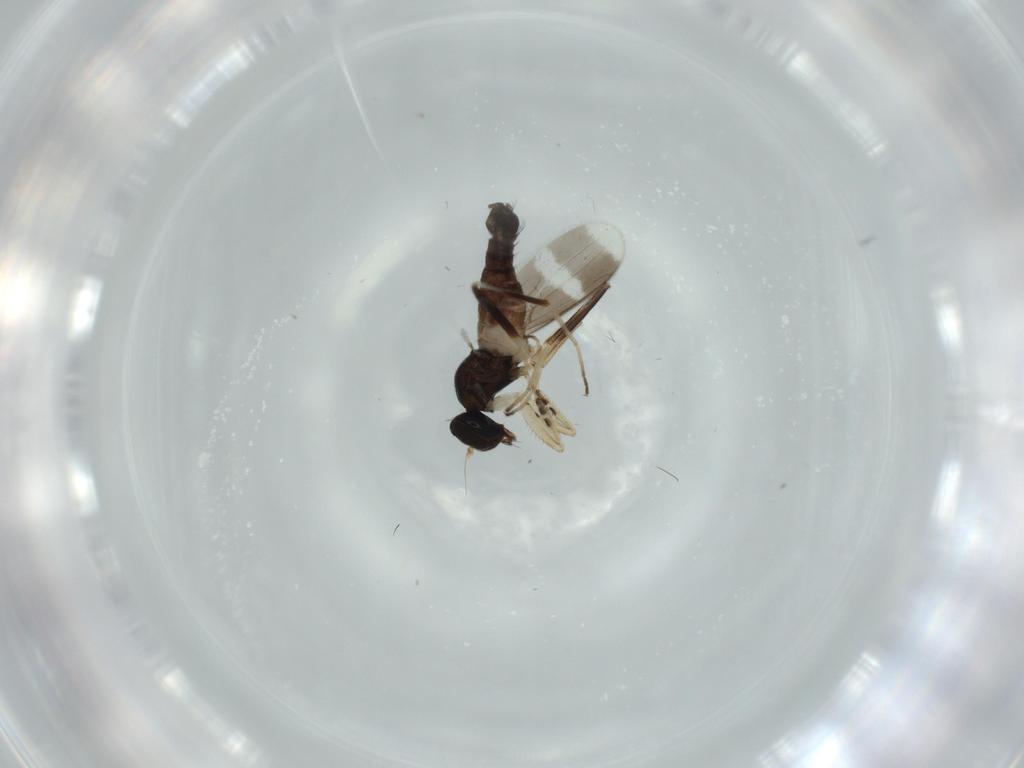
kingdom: Animalia
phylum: Arthropoda
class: Insecta
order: Diptera
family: Hybotidae
